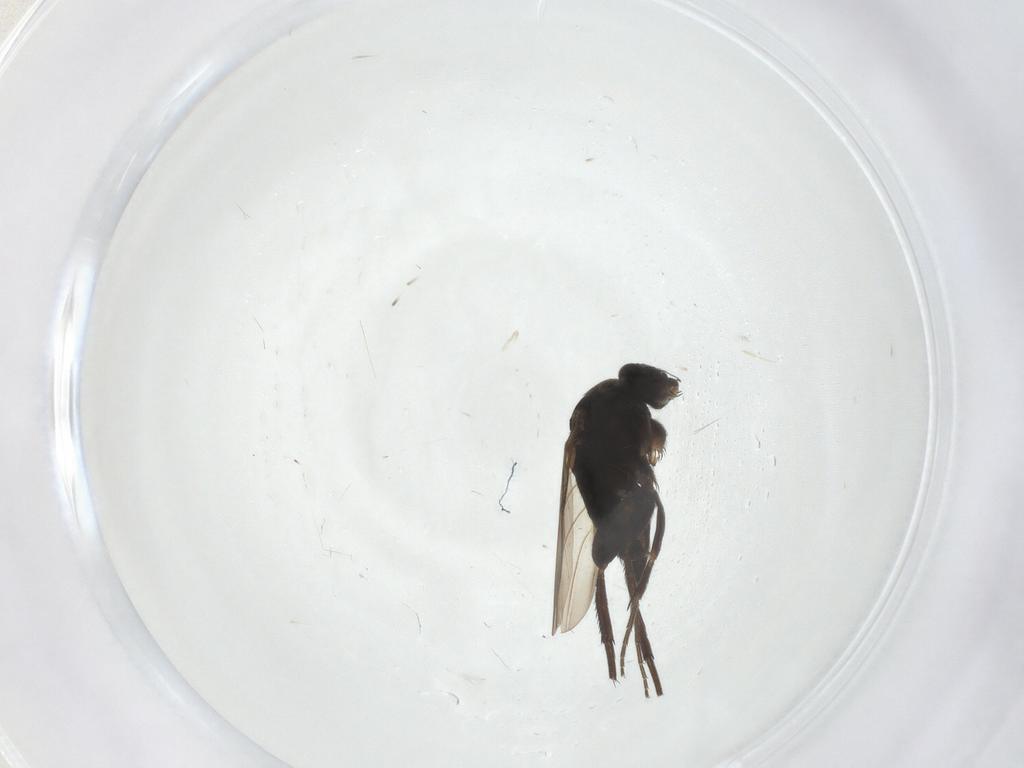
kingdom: Animalia
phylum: Arthropoda
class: Insecta
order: Diptera
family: Phoridae
